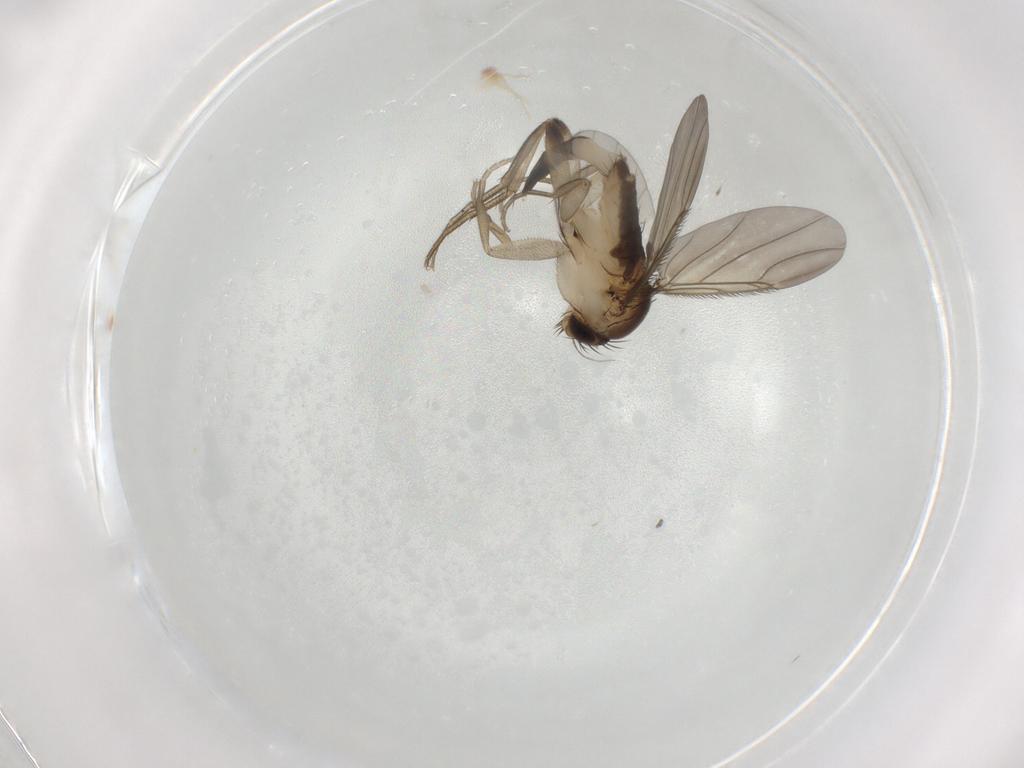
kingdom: Animalia
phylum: Arthropoda
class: Insecta
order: Diptera
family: Phoridae
